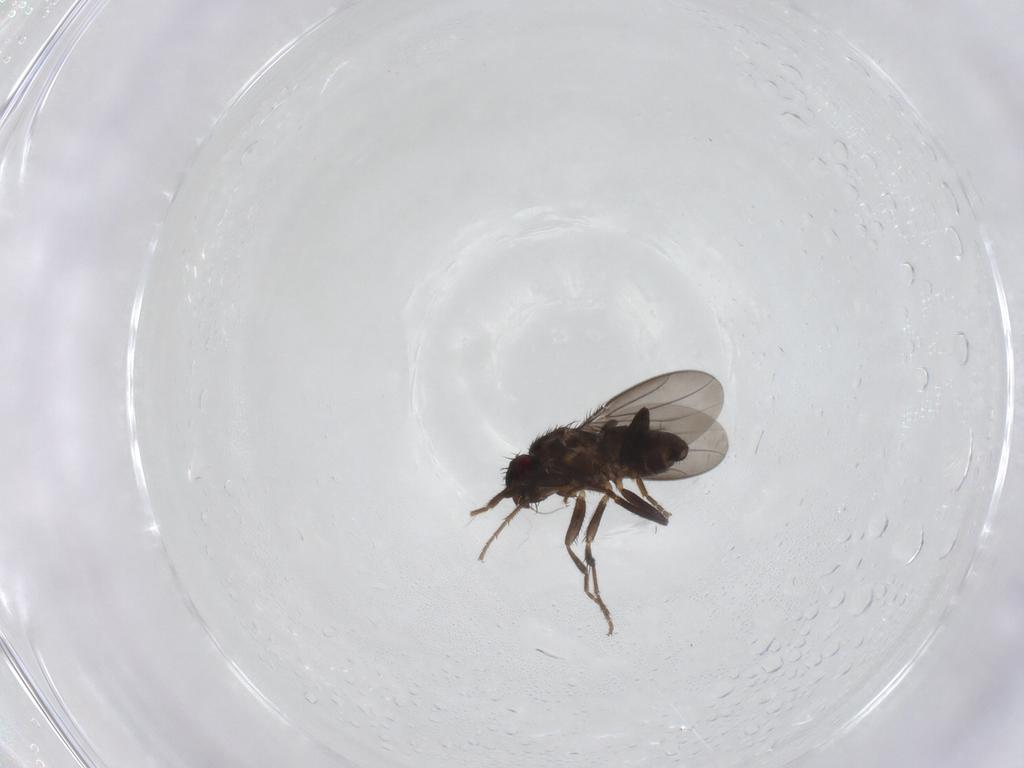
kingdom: Animalia
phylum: Arthropoda
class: Insecta
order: Diptera
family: Sphaeroceridae
